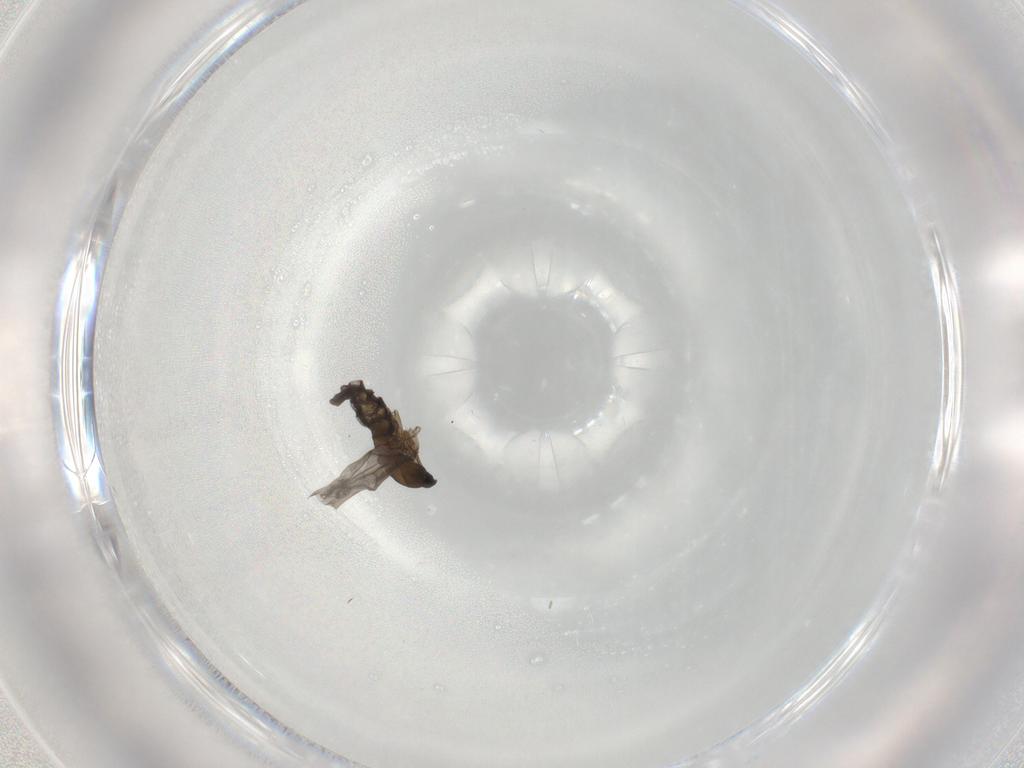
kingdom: Animalia
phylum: Arthropoda
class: Insecta
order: Diptera
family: Cecidomyiidae
